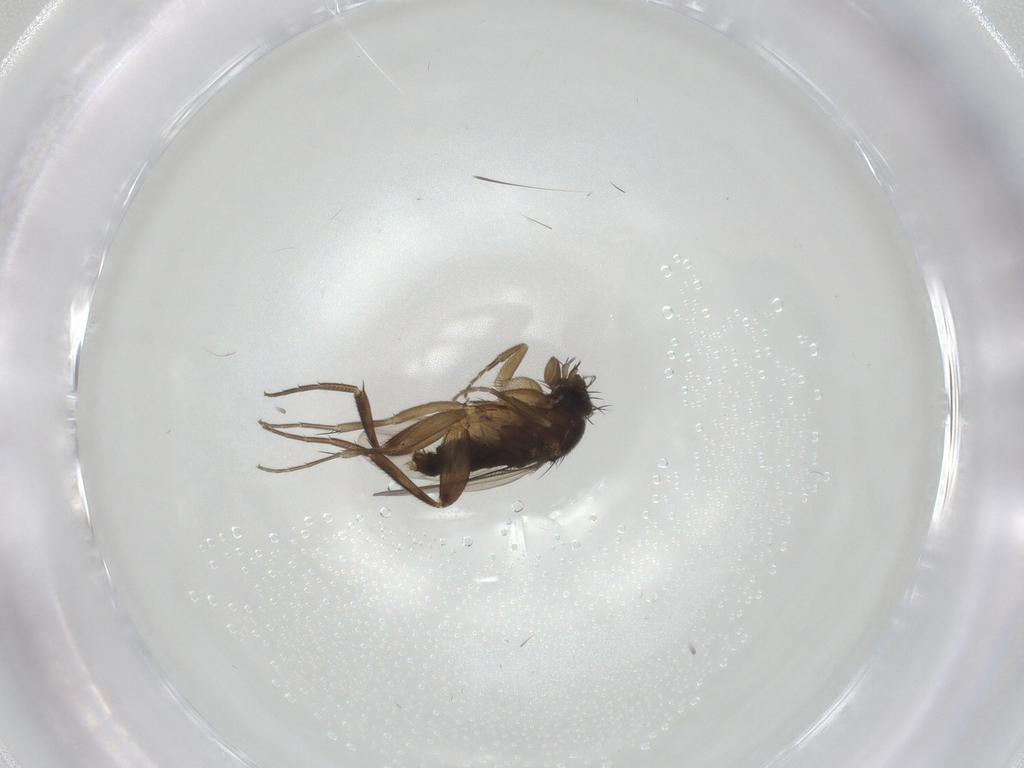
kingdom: Animalia
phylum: Arthropoda
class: Insecta
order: Diptera
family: Phoridae
